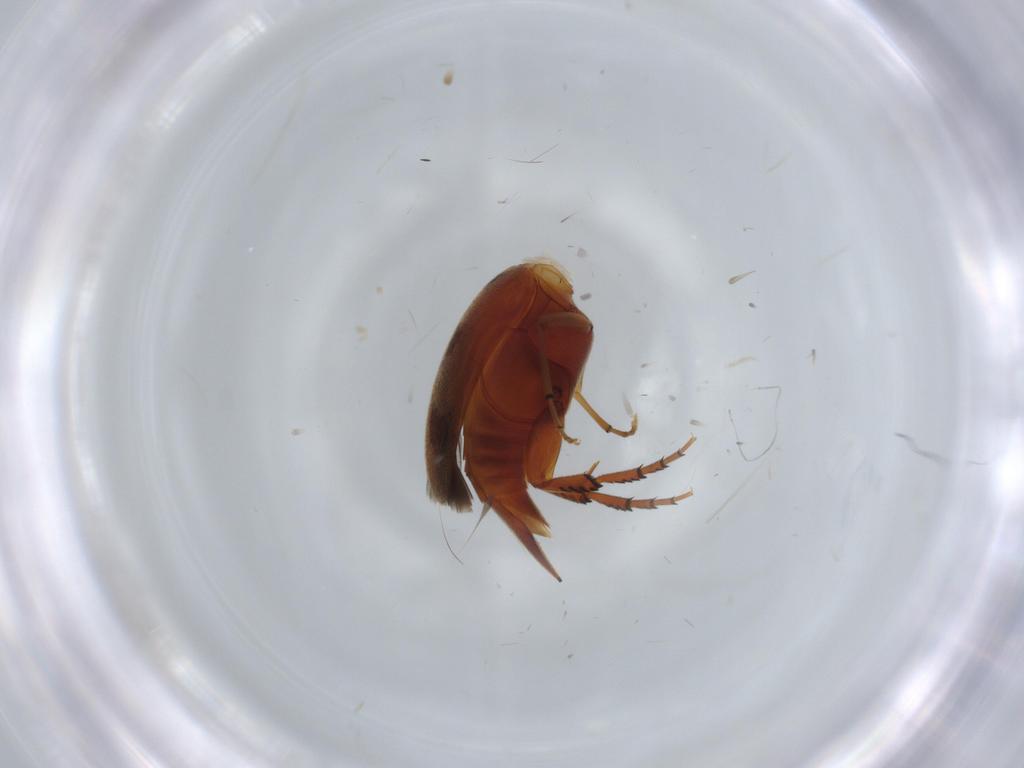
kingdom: Animalia
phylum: Arthropoda
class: Insecta
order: Coleoptera
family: Mordellidae
